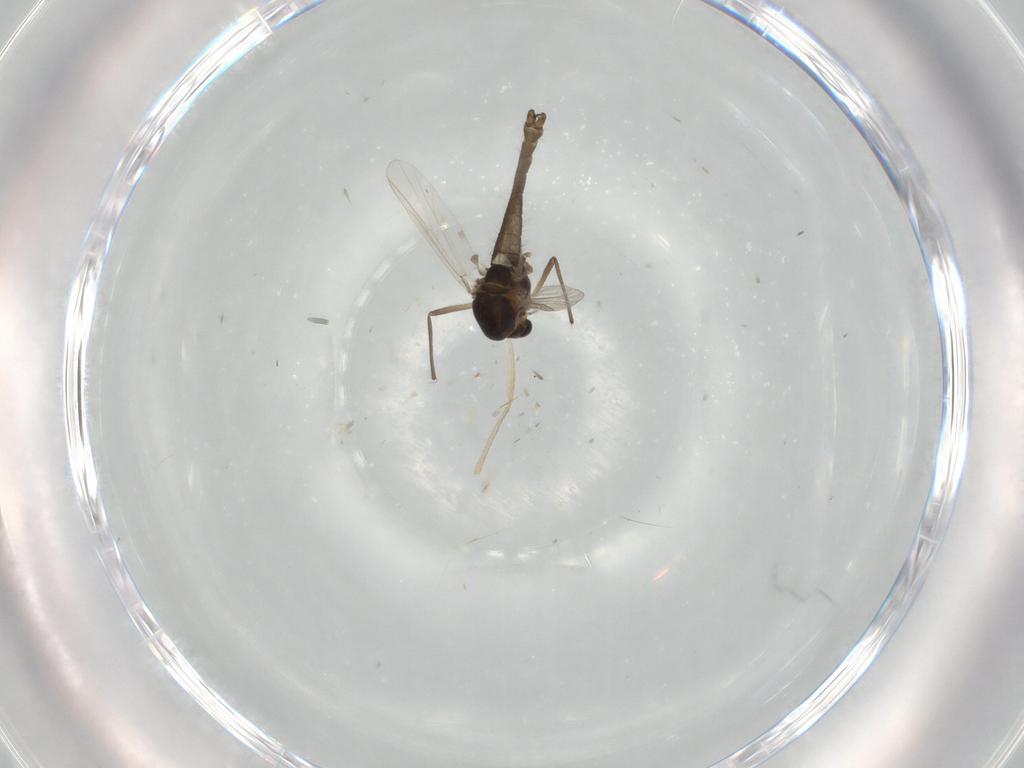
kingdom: Animalia
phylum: Arthropoda
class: Insecta
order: Diptera
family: Chironomidae
